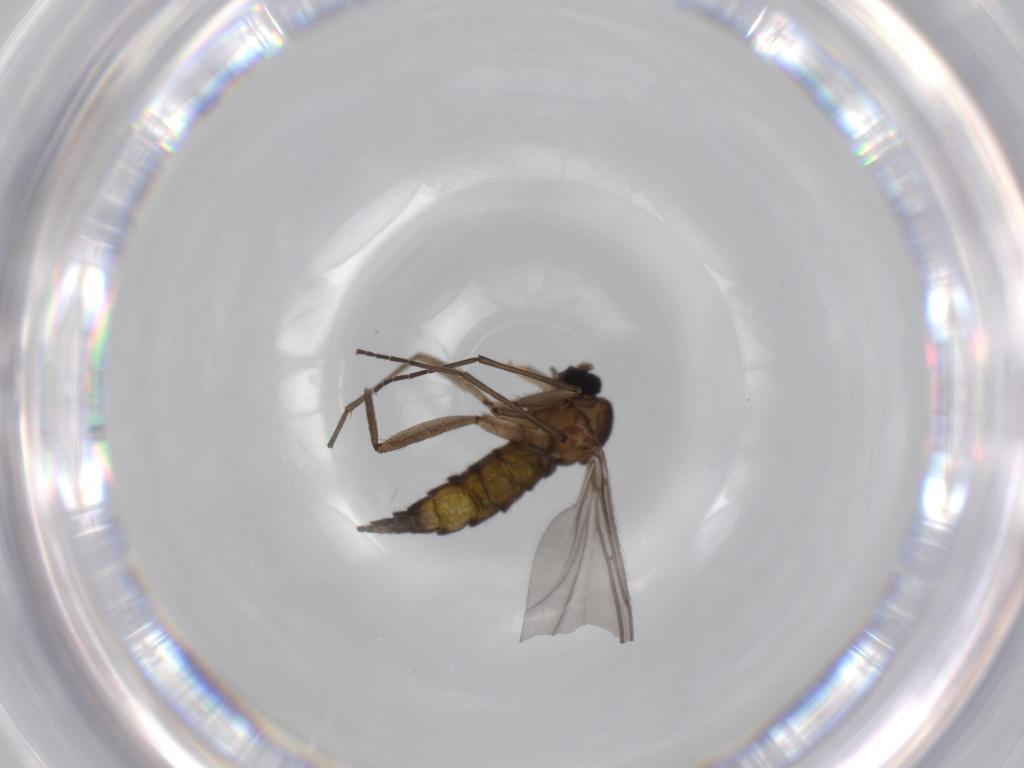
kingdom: Animalia
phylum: Arthropoda
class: Insecta
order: Diptera
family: Sciaridae
